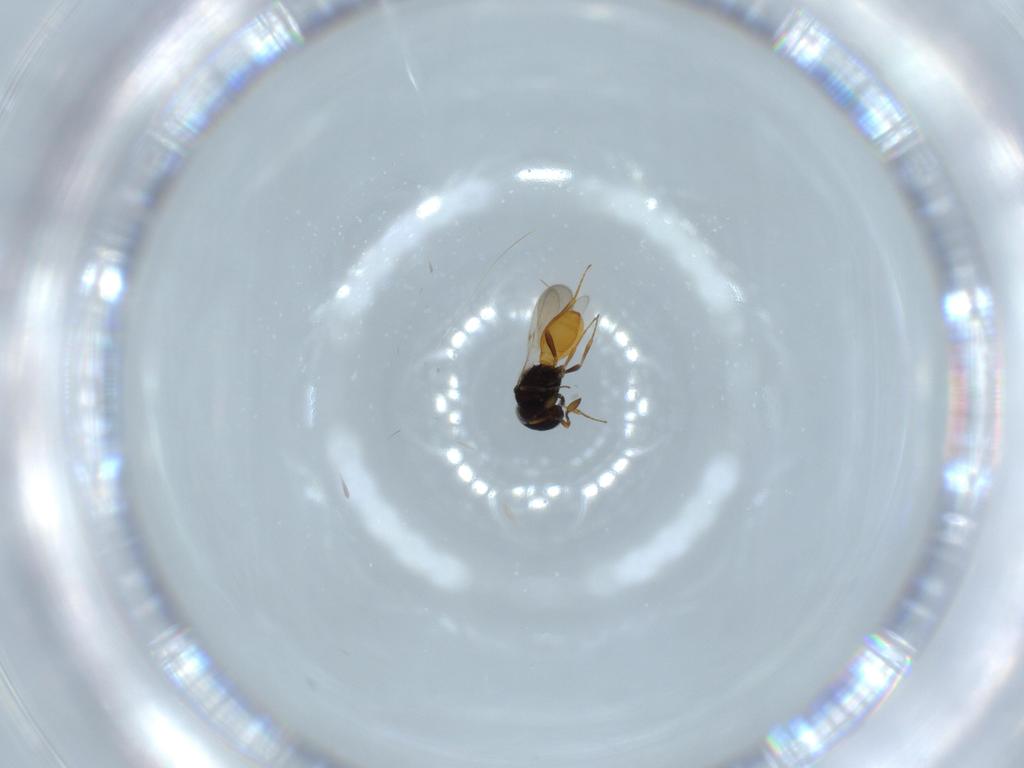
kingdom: Animalia
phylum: Arthropoda
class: Insecta
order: Hymenoptera
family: Scelionidae
